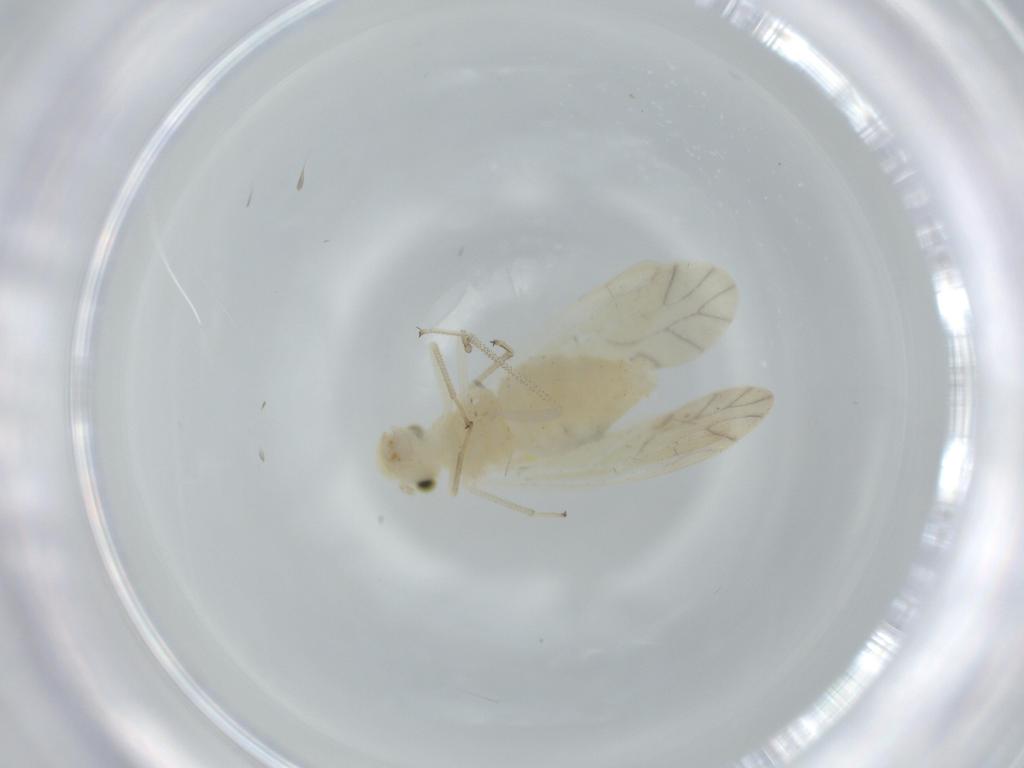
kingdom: Animalia
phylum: Arthropoda
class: Insecta
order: Psocodea
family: Caeciliusidae
